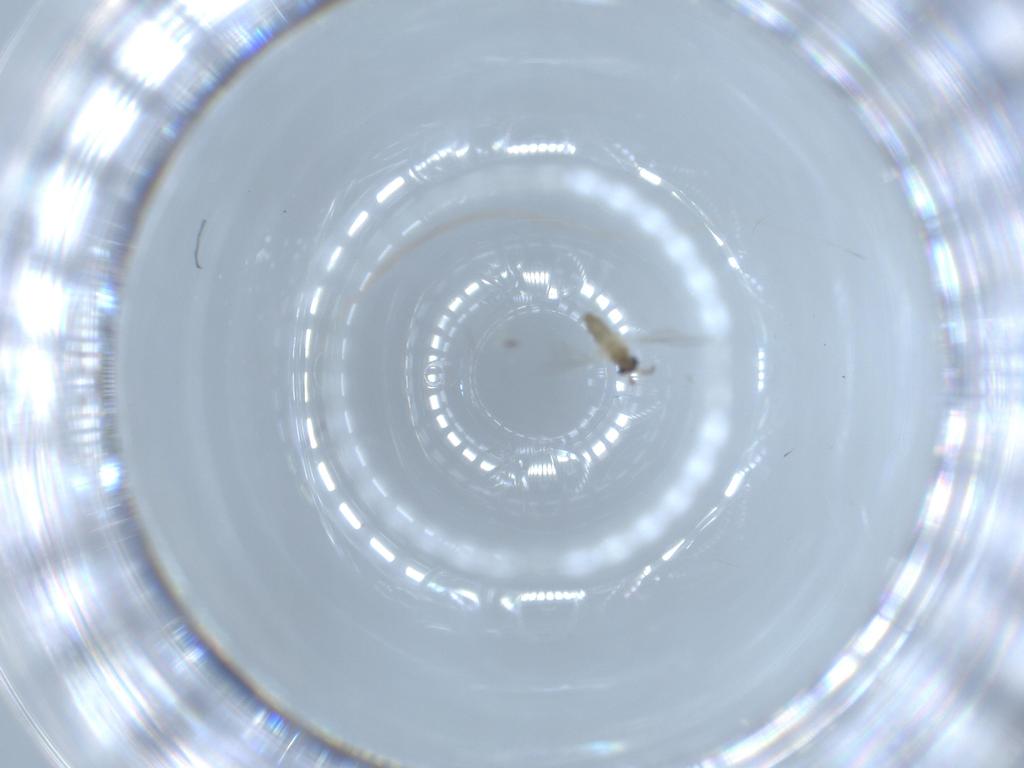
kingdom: Animalia
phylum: Arthropoda
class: Insecta
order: Diptera
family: Cecidomyiidae
